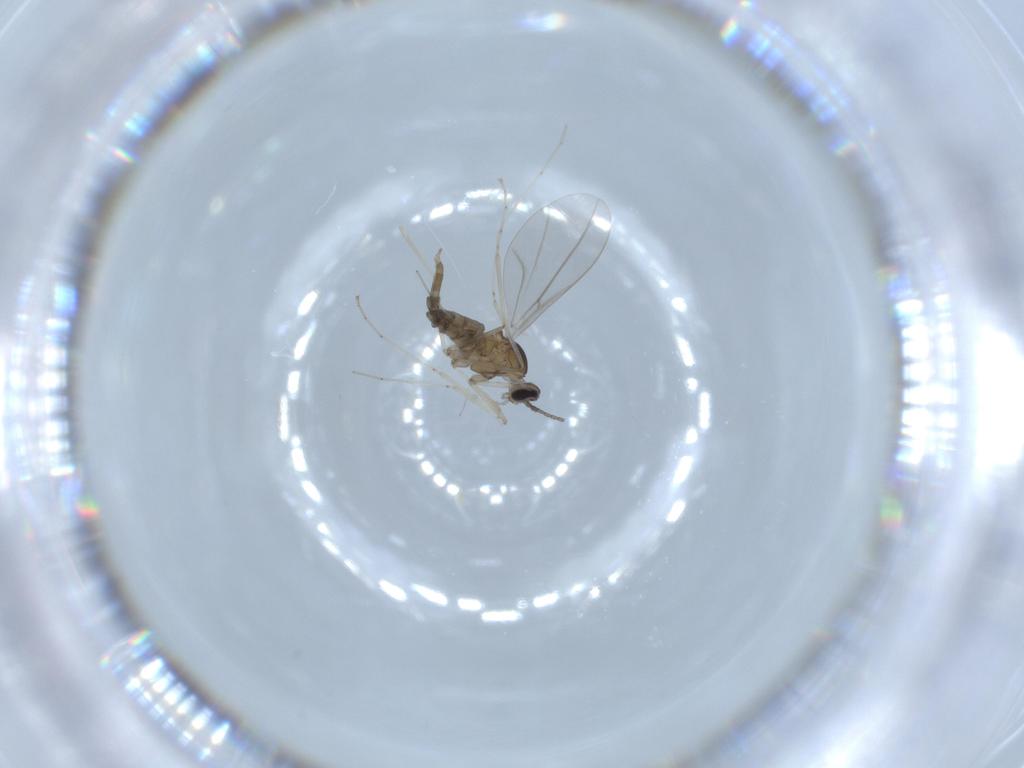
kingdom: Animalia
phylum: Arthropoda
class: Insecta
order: Diptera
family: Cecidomyiidae
